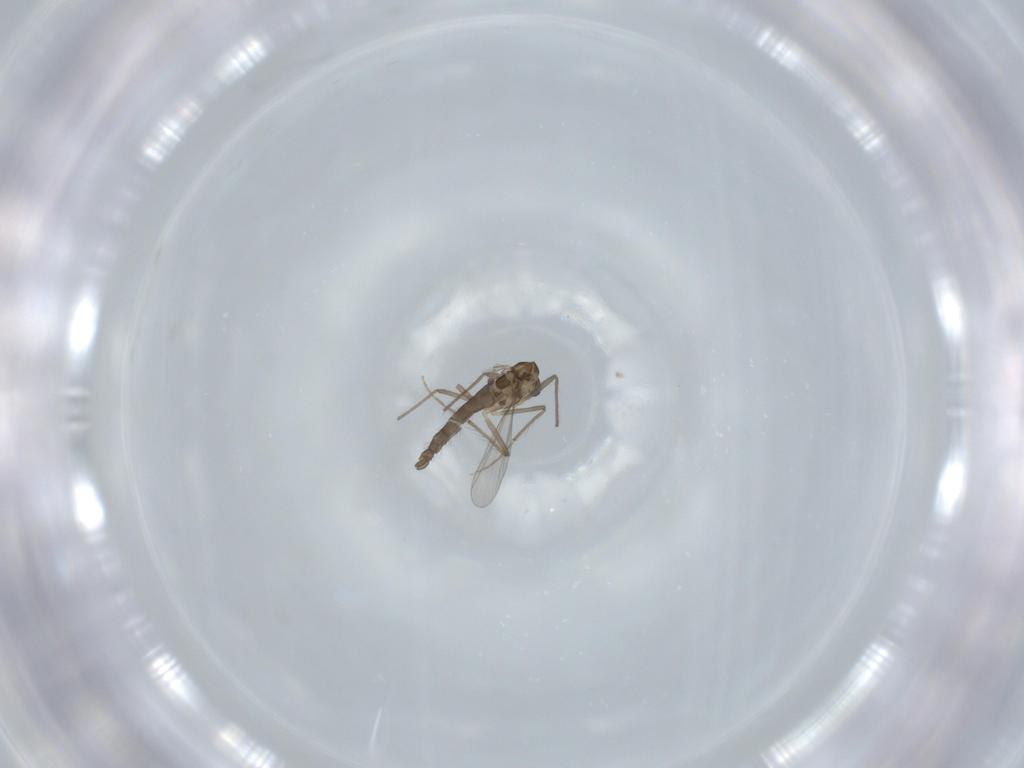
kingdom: Animalia
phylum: Arthropoda
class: Insecta
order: Diptera
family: Chironomidae
